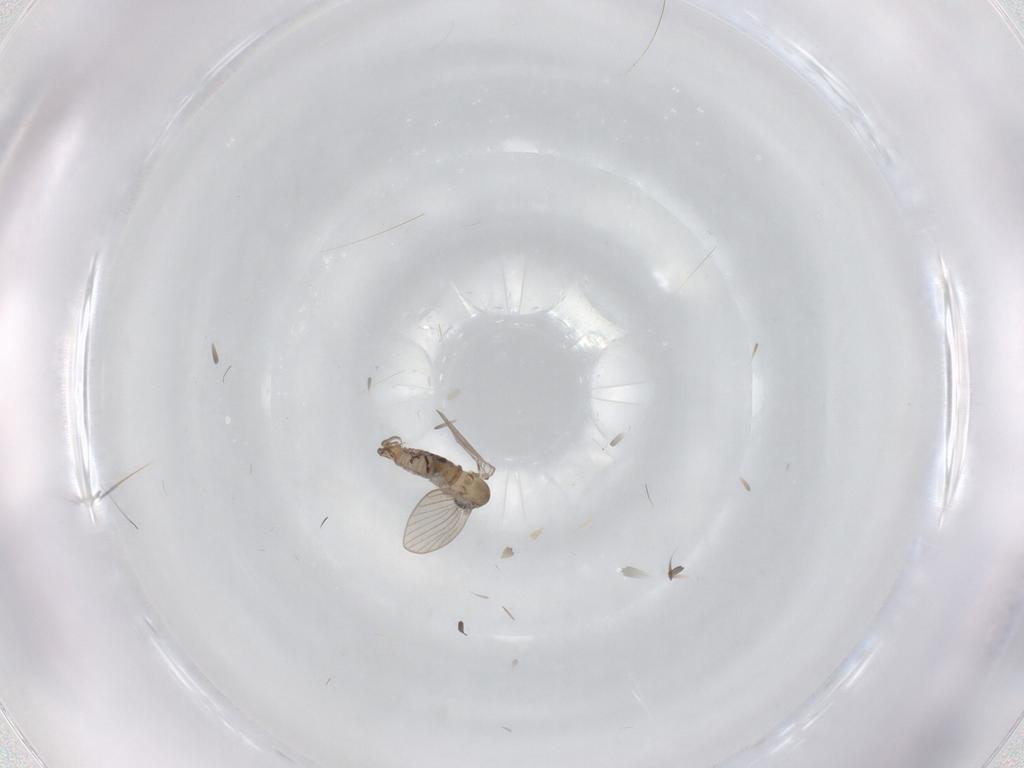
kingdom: Animalia
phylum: Arthropoda
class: Insecta
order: Diptera
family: Psychodidae
